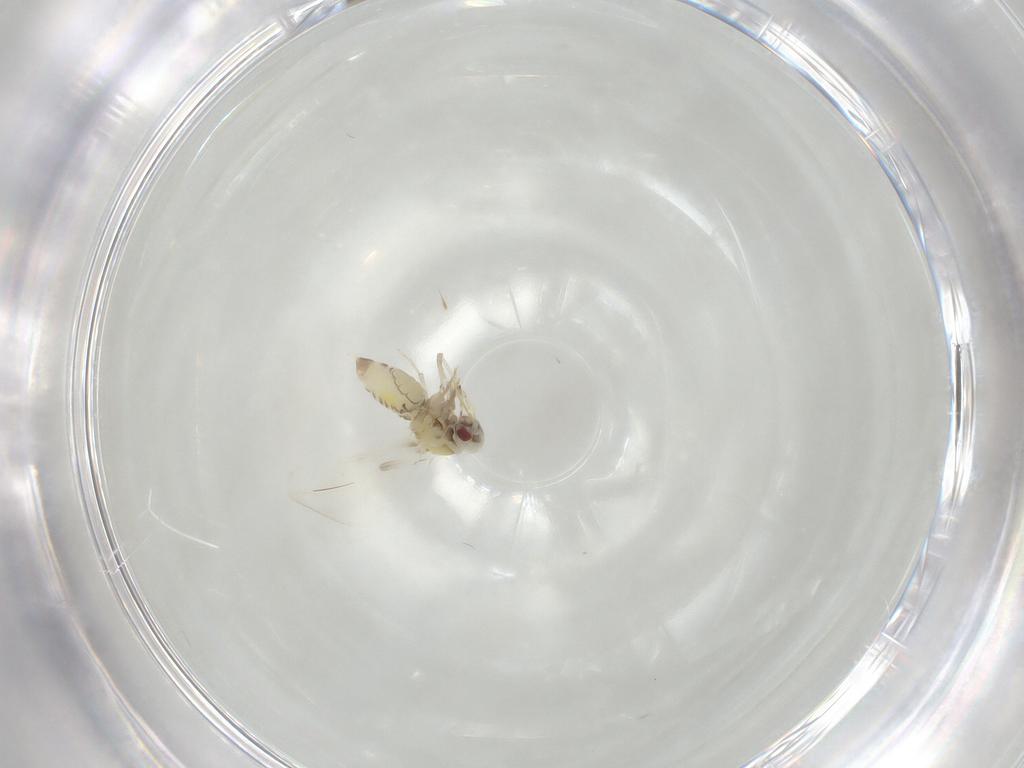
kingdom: Animalia
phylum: Arthropoda
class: Insecta
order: Hemiptera
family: Aleyrodidae
